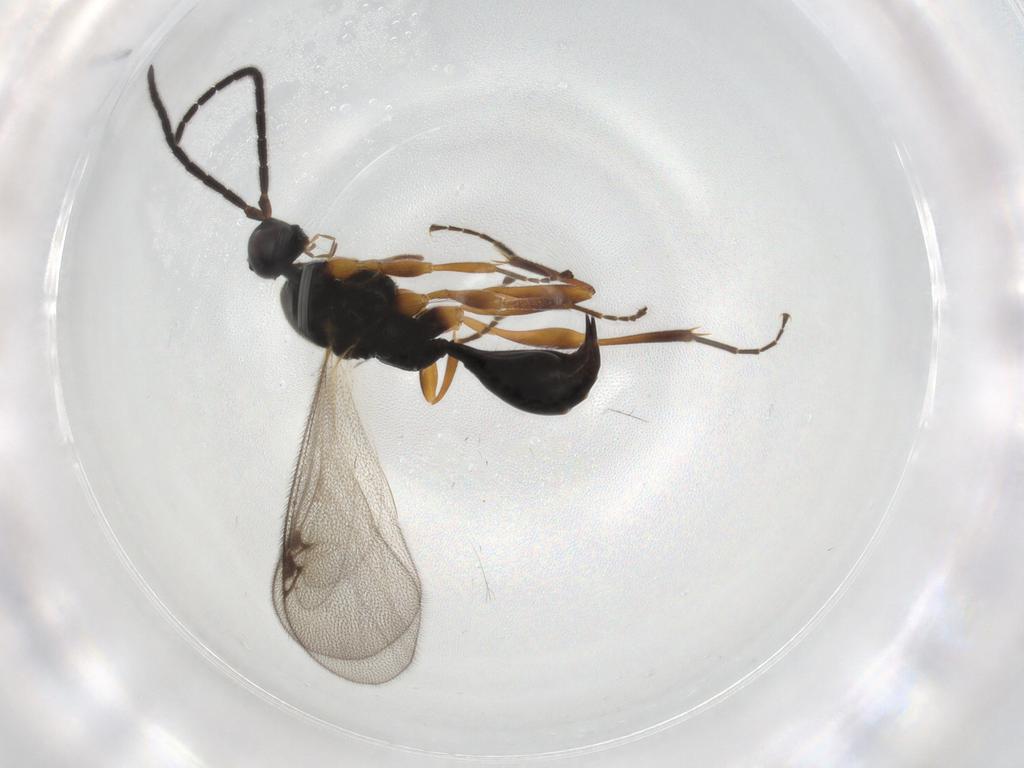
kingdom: Animalia
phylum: Arthropoda
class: Insecta
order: Hymenoptera
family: Proctotrupidae
